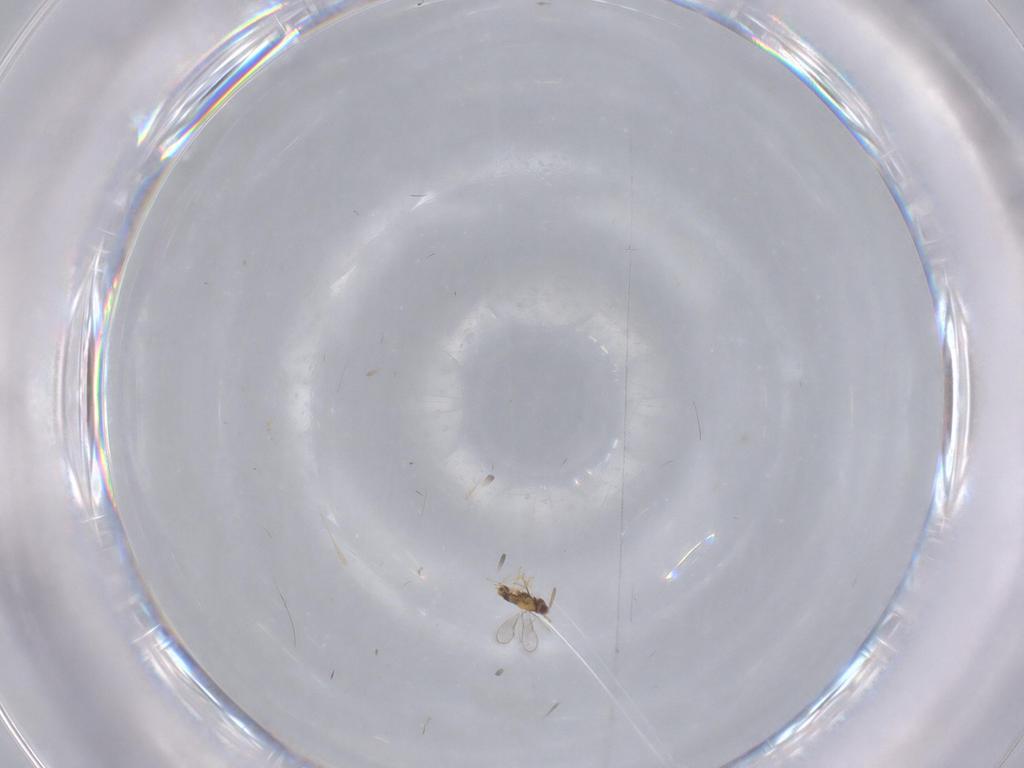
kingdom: Animalia
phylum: Arthropoda
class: Insecta
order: Hymenoptera
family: Aphelinidae
